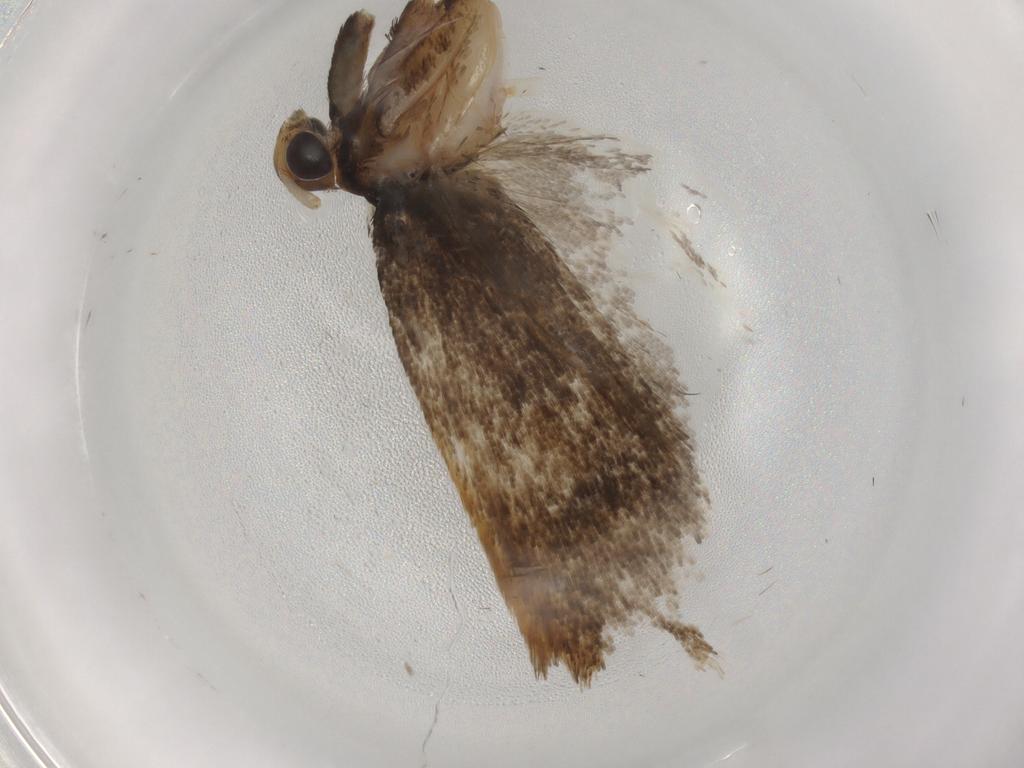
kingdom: Animalia
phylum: Arthropoda
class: Insecta
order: Lepidoptera
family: Lecithoceridae
